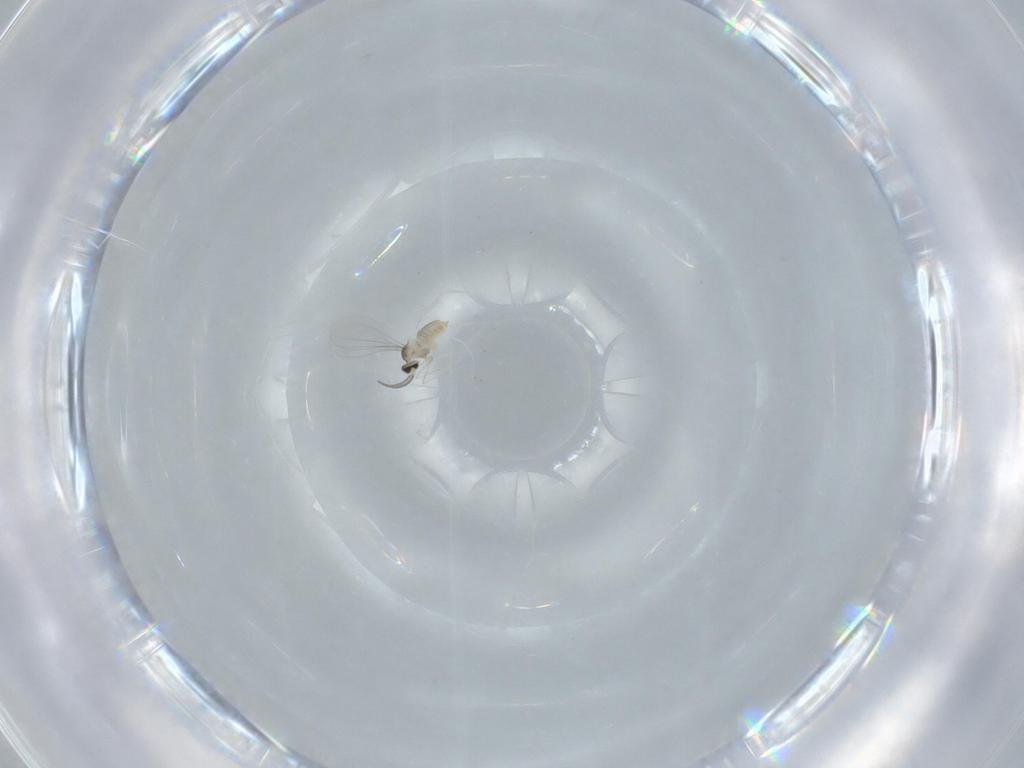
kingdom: Animalia
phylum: Arthropoda
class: Insecta
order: Diptera
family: Cecidomyiidae
